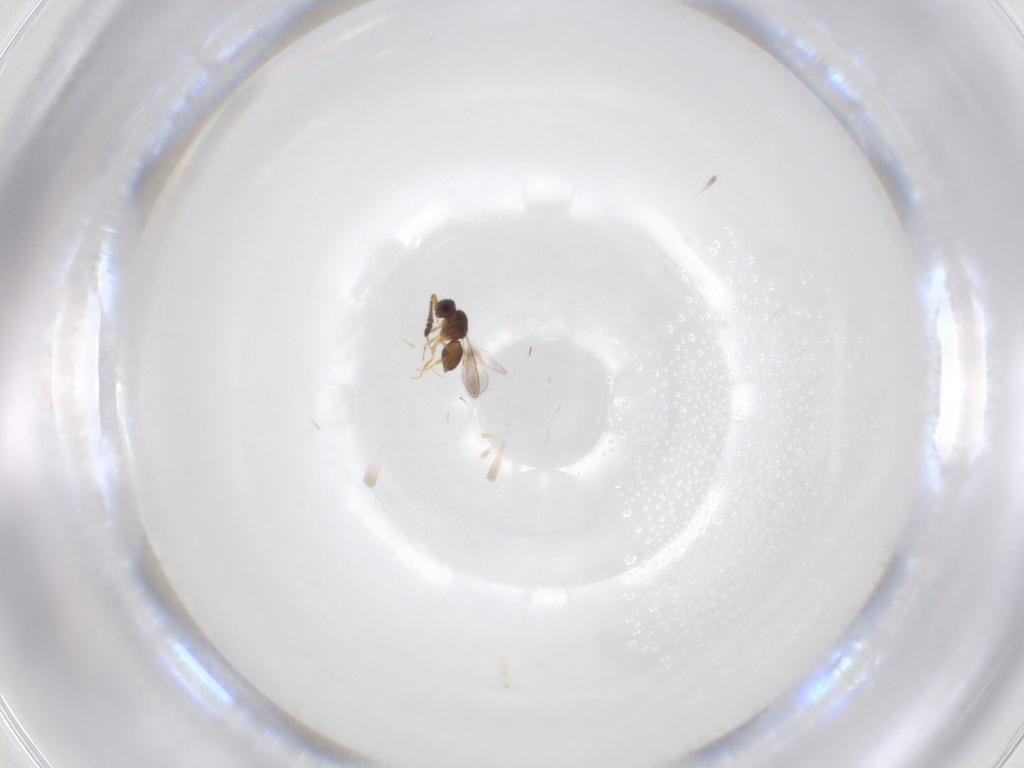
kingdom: Animalia
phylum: Arthropoda
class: Insecta
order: Hymenoptera
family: Ceraphronidae
